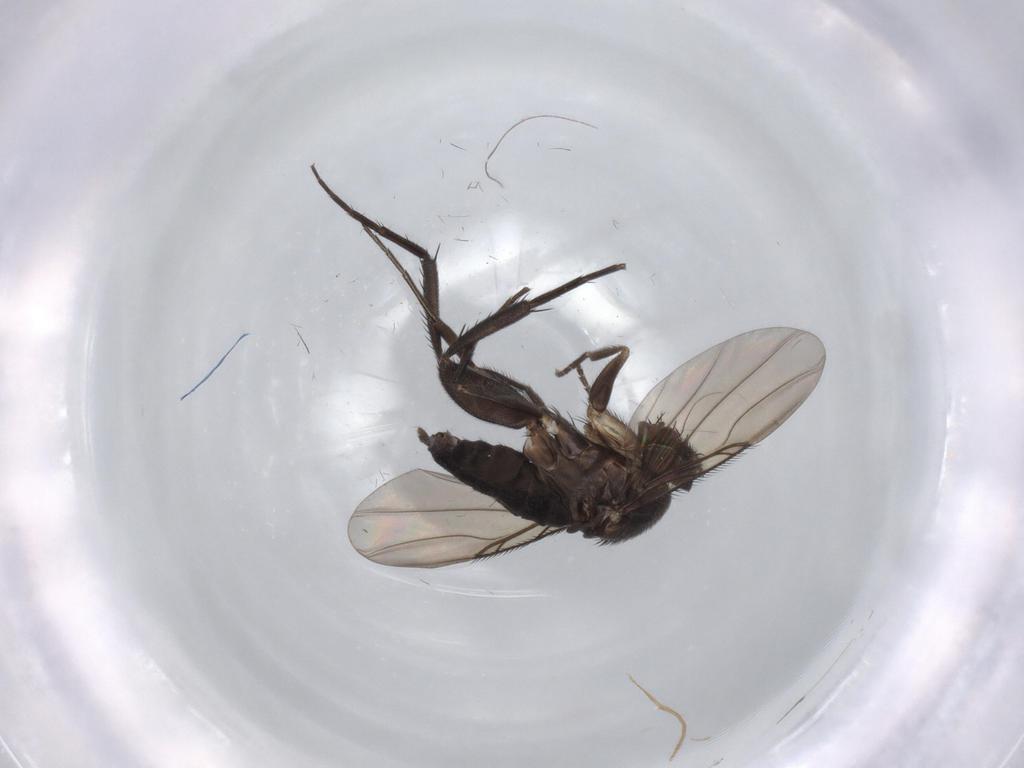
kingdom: Animalia
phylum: Arthropoda
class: Insecta
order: Diptera
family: Phoridae
